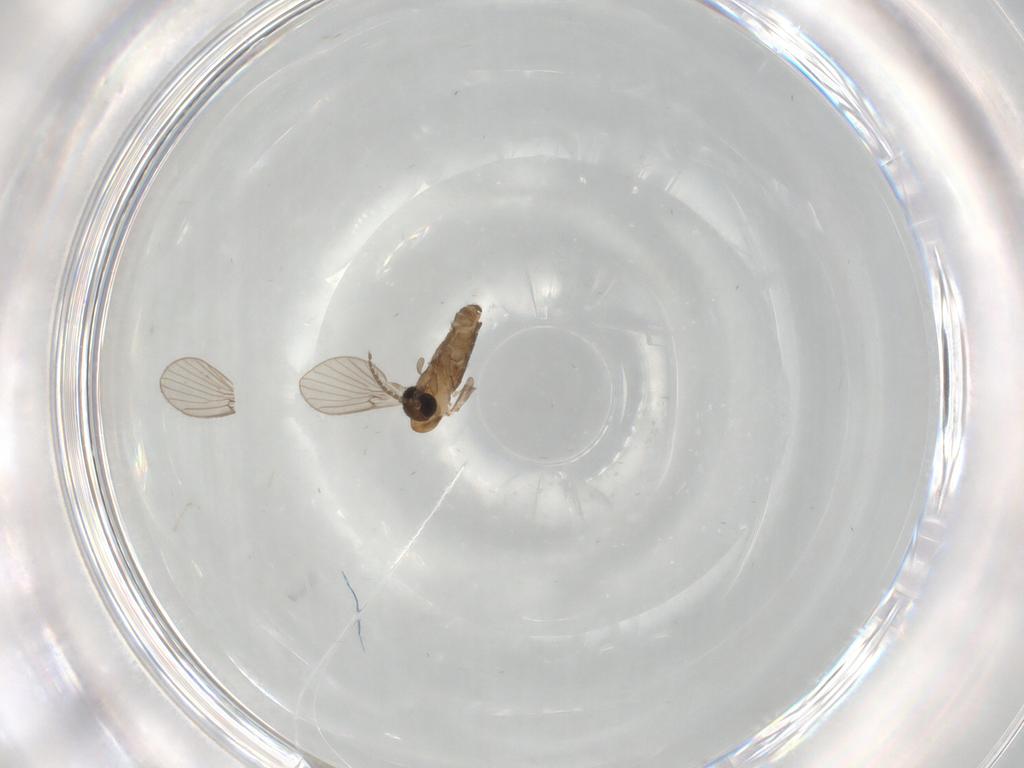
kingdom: Animalia
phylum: Arthropoda
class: Insecta
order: Diptera
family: Psychodidae
